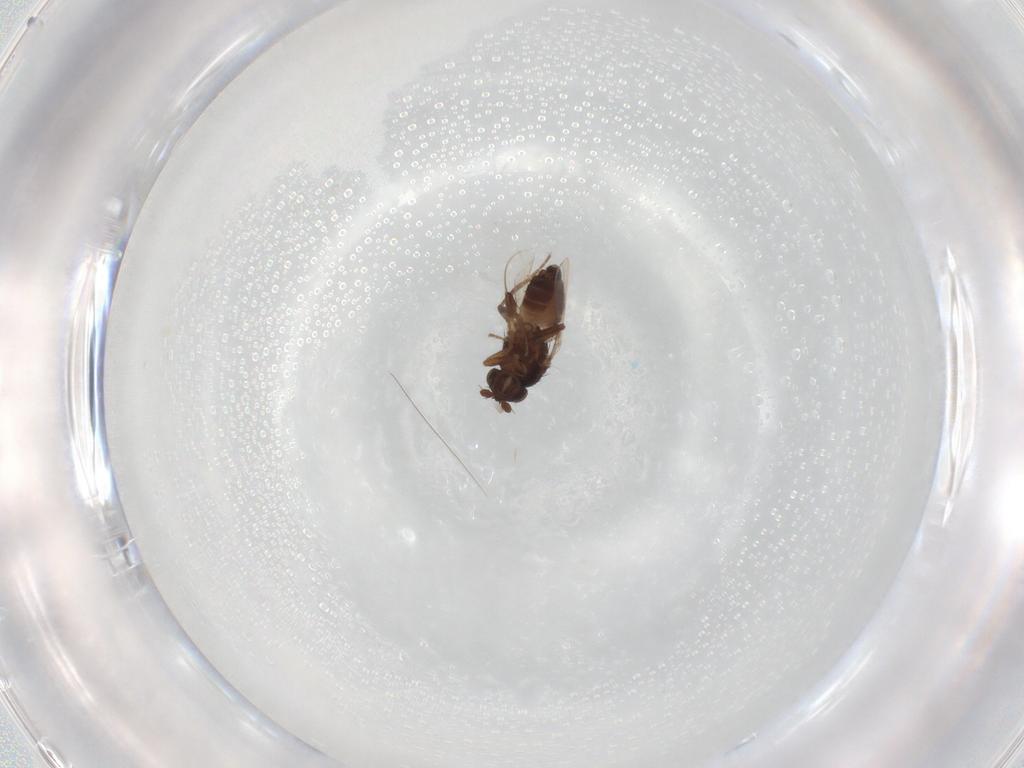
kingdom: Animalia
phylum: Arthropoda
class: Insecta
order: Diptera
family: Sphaeroceridae
